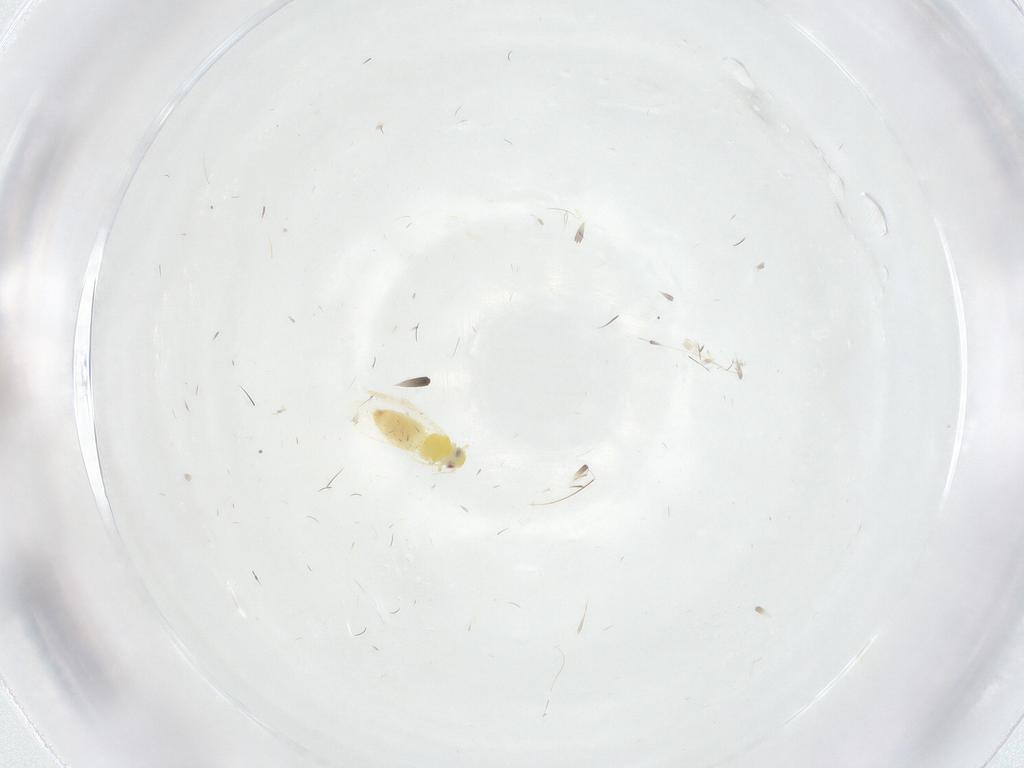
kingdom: Animalia
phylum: Arthropoda
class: Insecta
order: Hemiptera
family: Aleyrodidae
